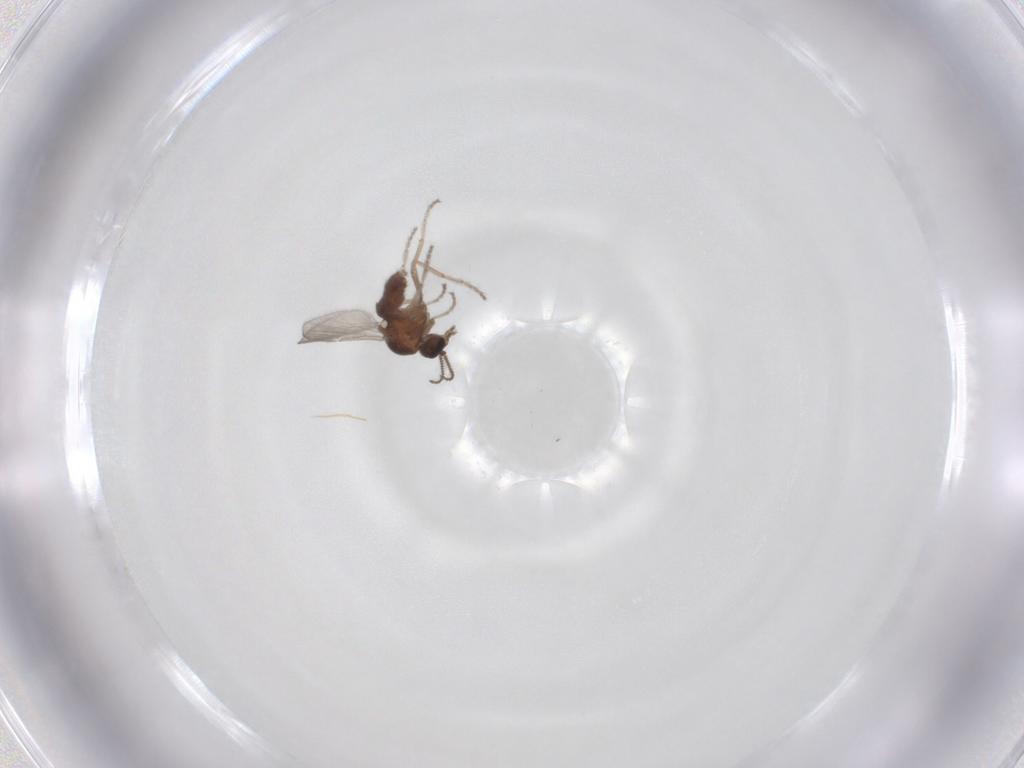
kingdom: Animalia
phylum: Arthropoda
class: Insecta
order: Diptera
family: Ceratopogonidae
